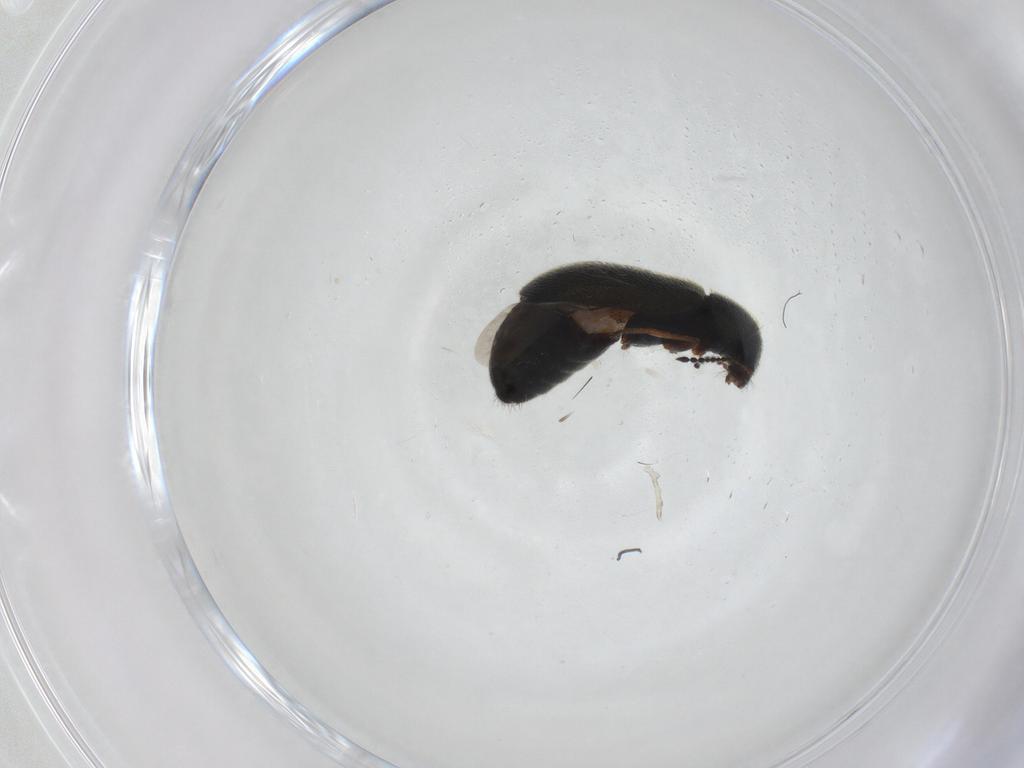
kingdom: Animalia
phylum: Arthropoda
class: Insecta
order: Coleoptera
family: Melyridae
